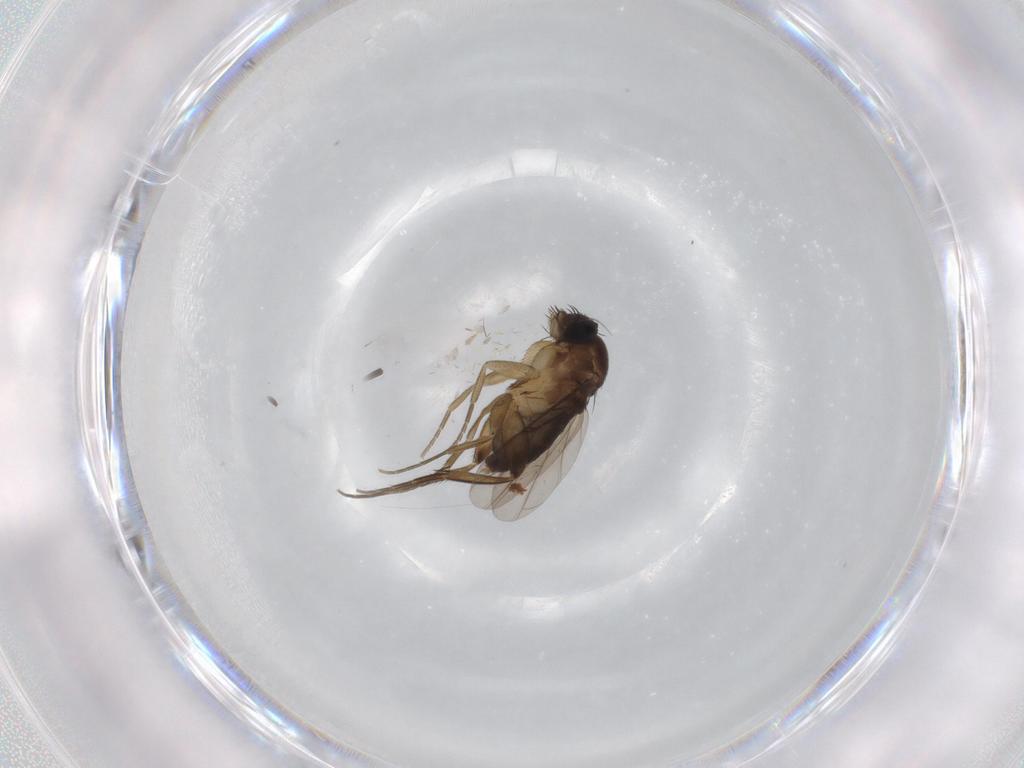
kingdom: Animalia
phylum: Arthropoda
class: Insecta
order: Diptera
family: Phoridae
